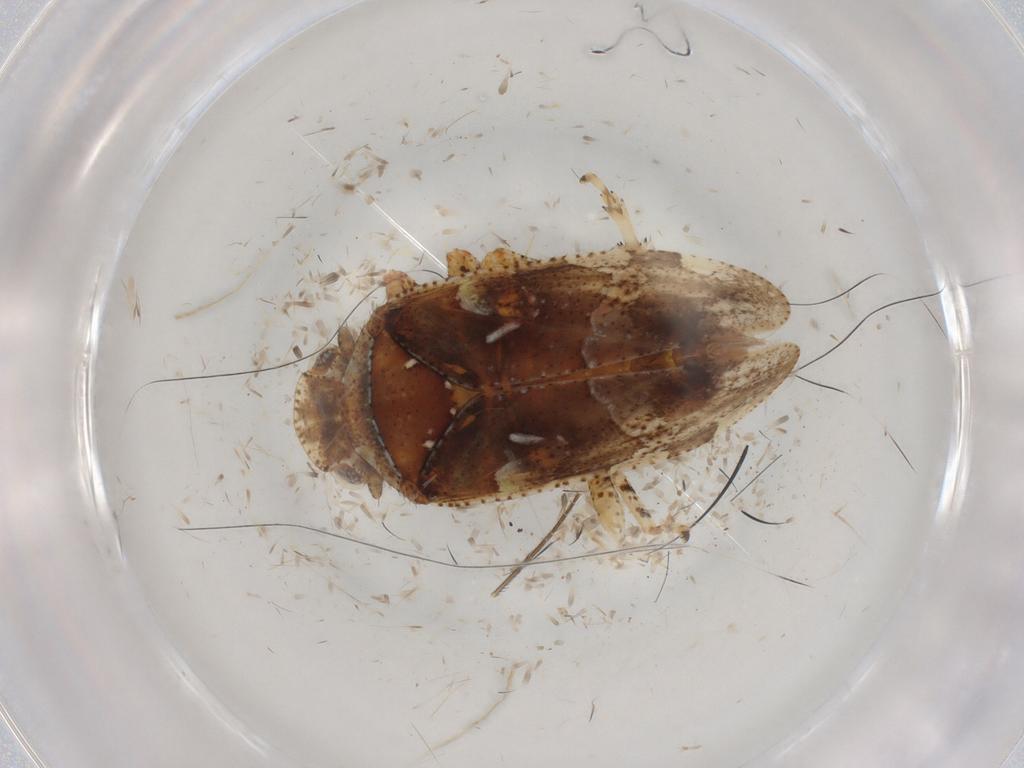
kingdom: Animalia
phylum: Arthropoda
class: Insecta
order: Hemiptera
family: Tettigometridae
